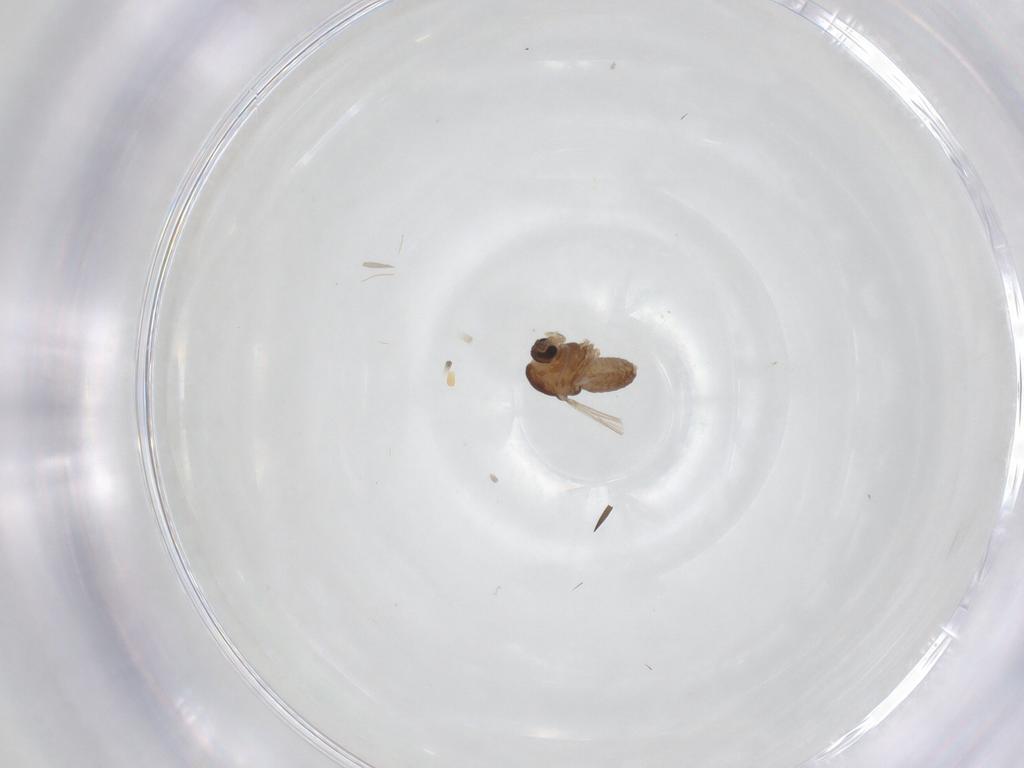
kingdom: Animalia
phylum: Arthropoda
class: Insecta
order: Diptera
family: Chironomidae
